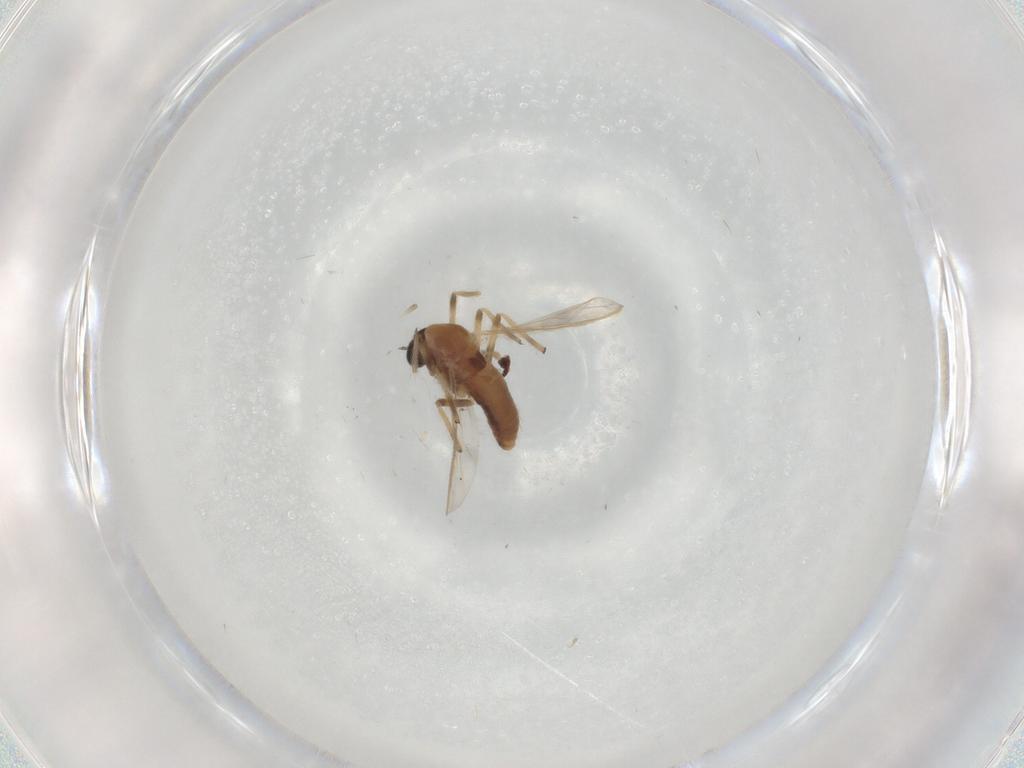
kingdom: Animalia
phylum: Arthropoda
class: Insecta
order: Diptera
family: Chironomidae
